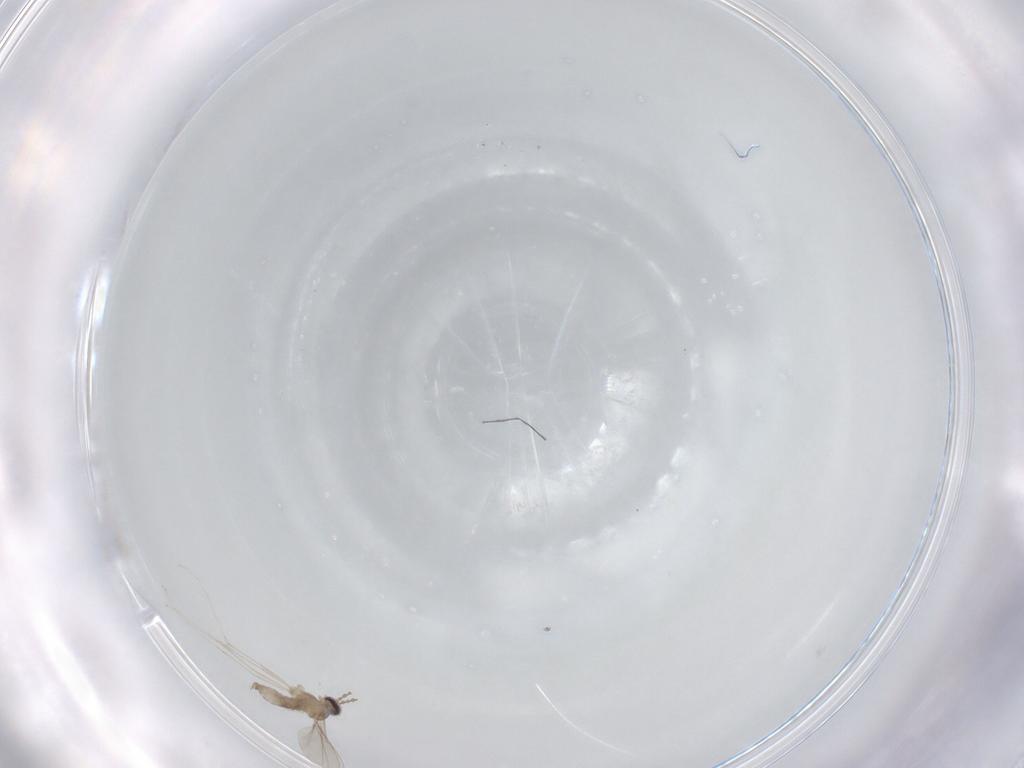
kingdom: Animalia
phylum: Arthropoda
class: Insecta
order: Diptera
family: Cecidomyiidae
